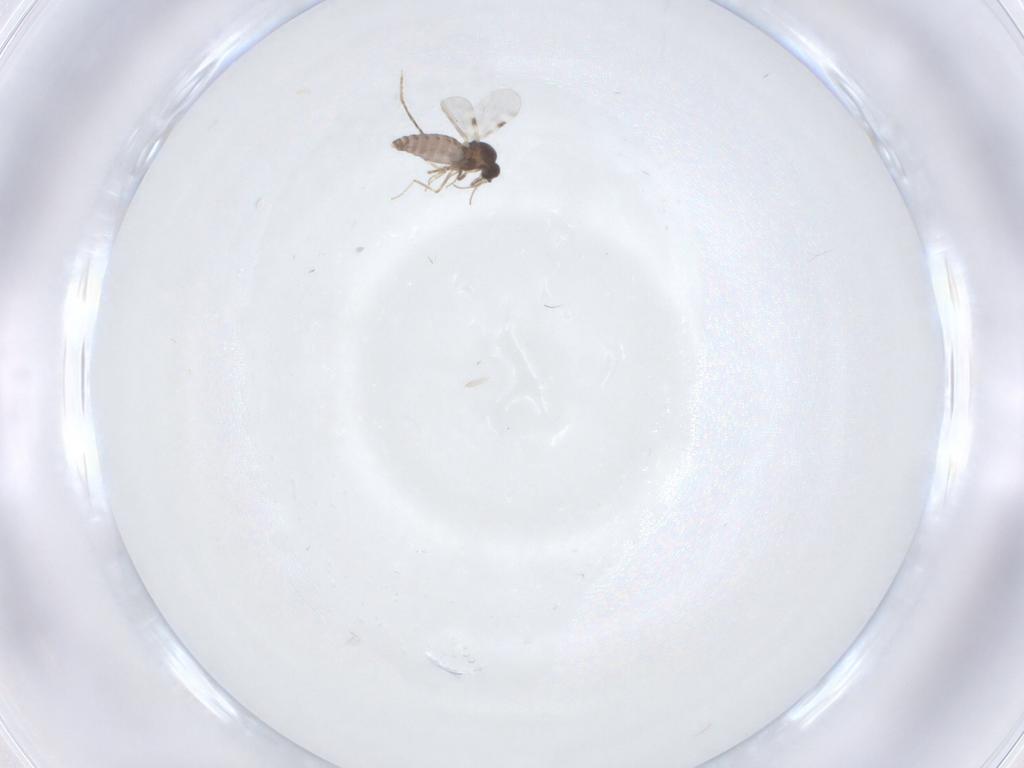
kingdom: Animalia
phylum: Arthropoda
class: Insecta
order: Diptera
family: Cecidomyiidae
